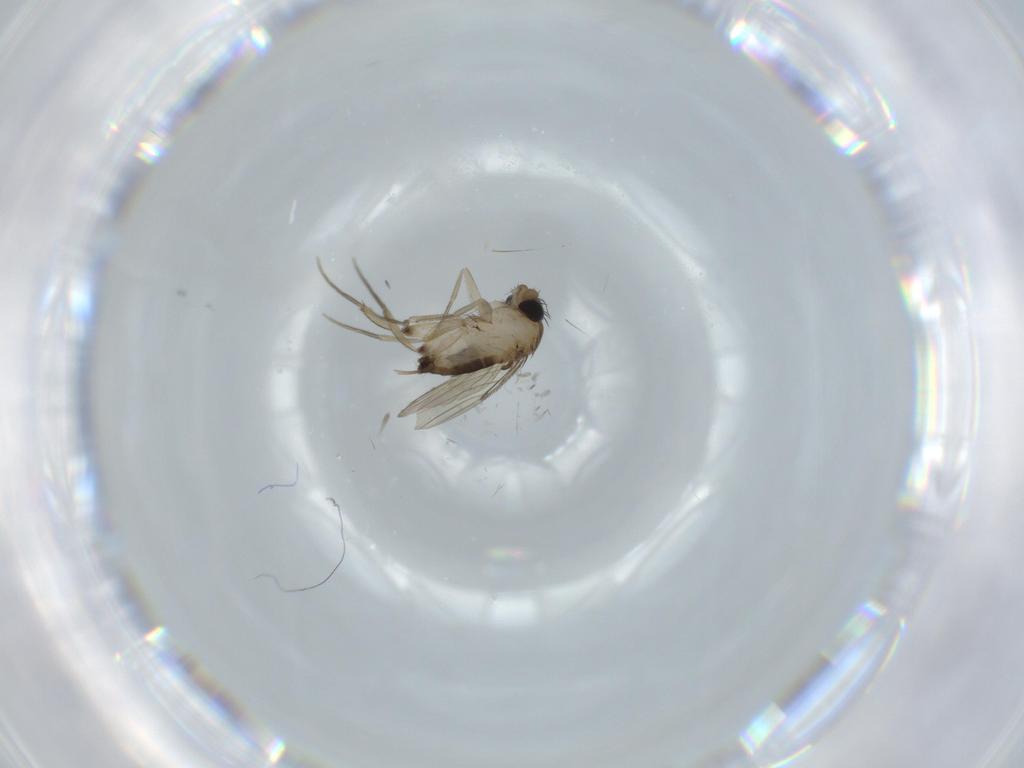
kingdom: Animalia
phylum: Arthropoda
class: Insecta
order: Diptera
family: Phoridae
